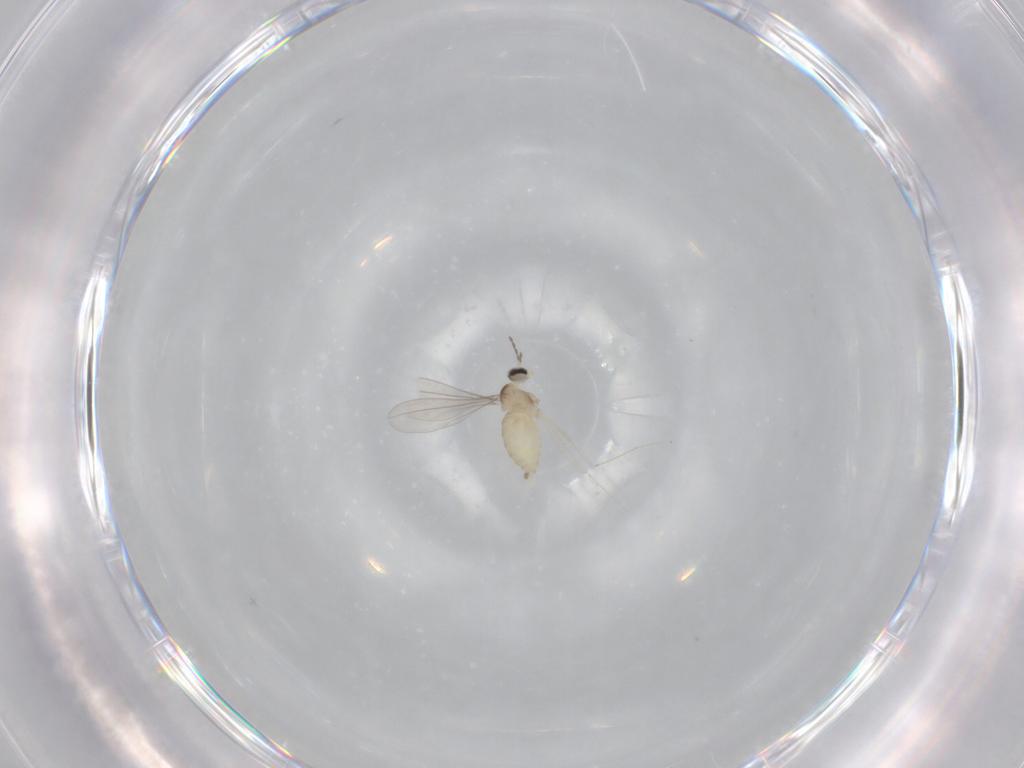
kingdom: Animalia
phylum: Arthropoda
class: Insecta
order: Diptera
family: Cecidomyiidae
